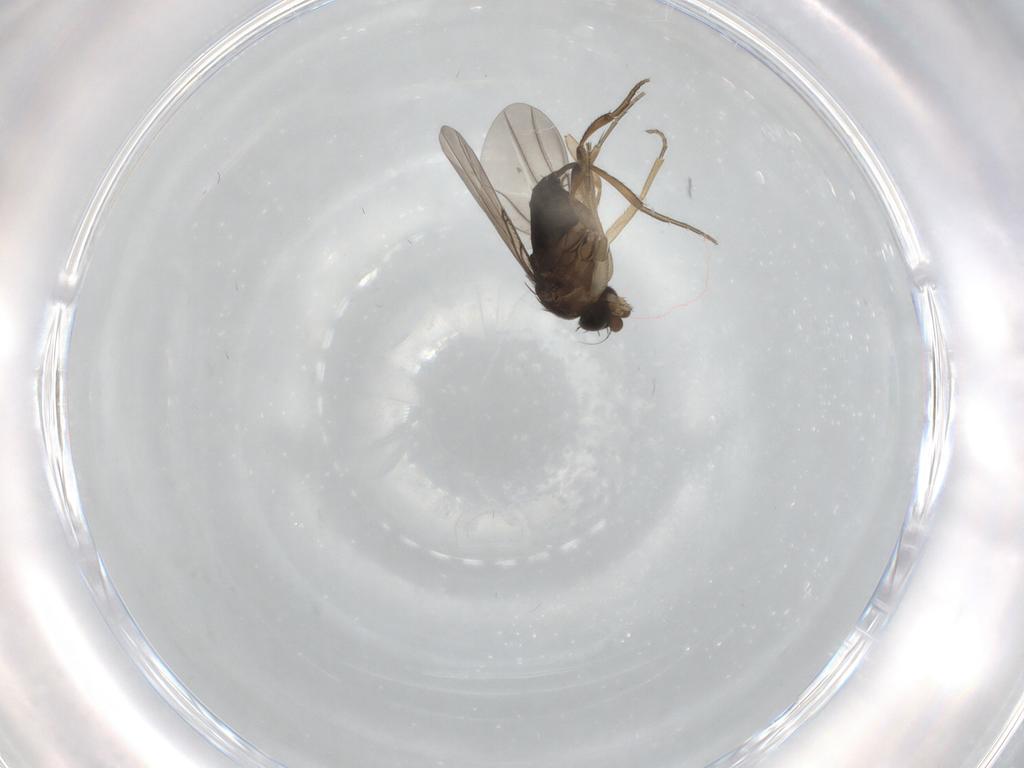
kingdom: Animalia
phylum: Arthropoda
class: Insecta
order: Diptera
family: Phoridae
